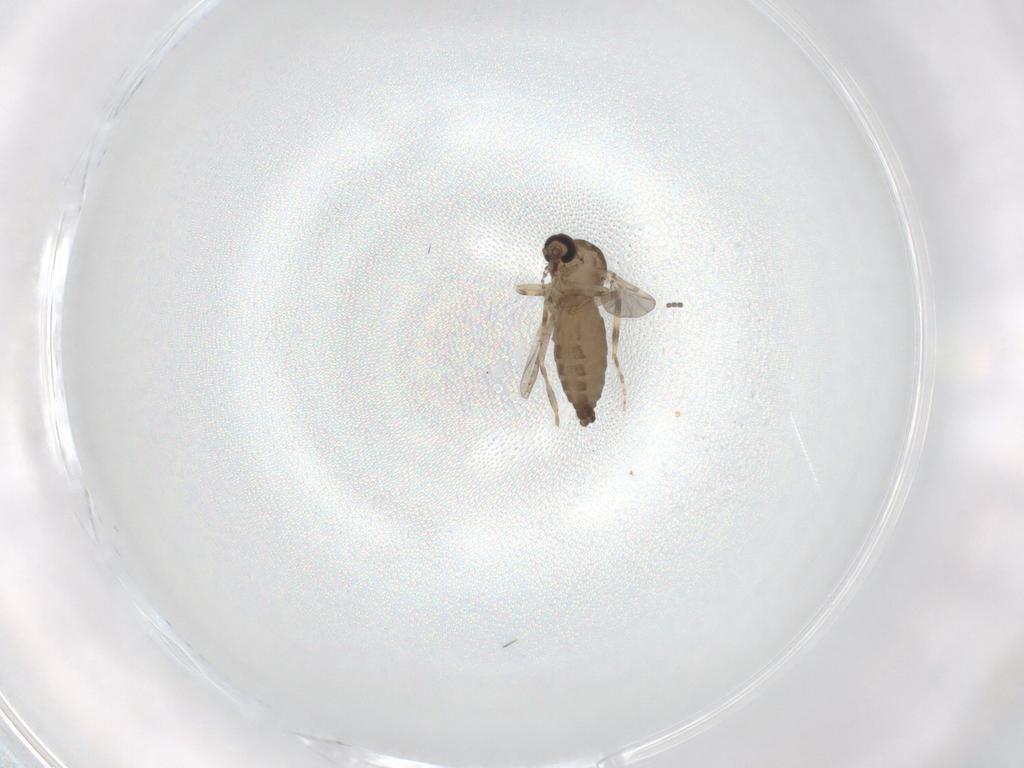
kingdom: Animalia
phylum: Arthropoda
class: Insecta
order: Diptera
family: Ceratopogonidae
